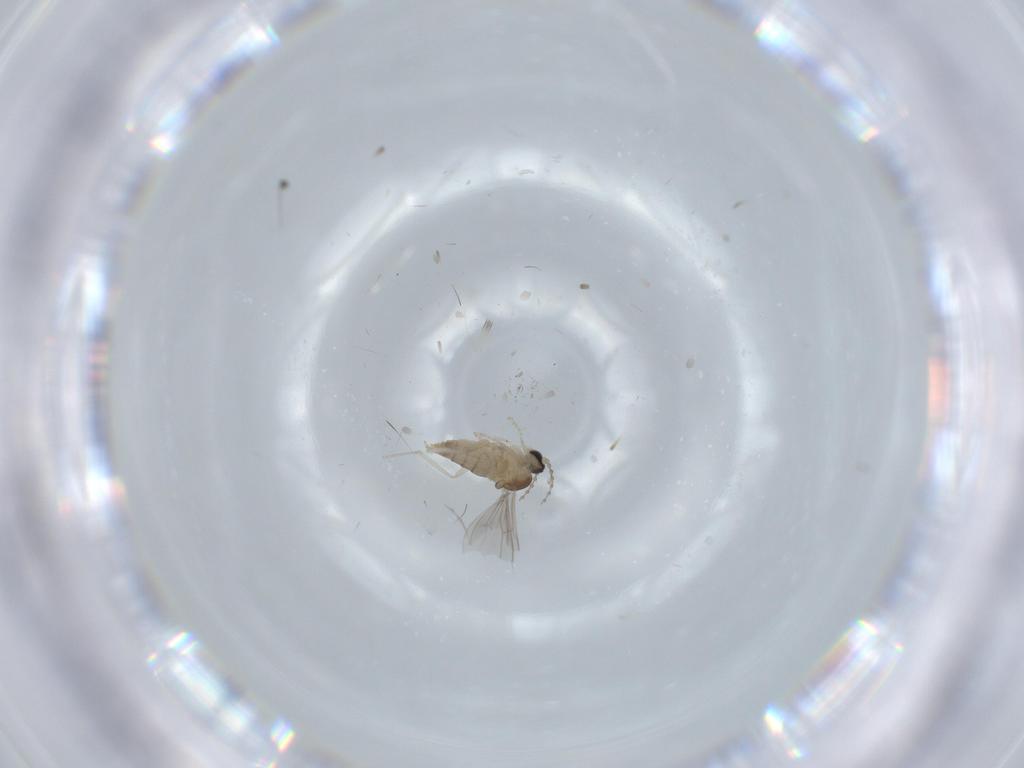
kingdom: Animalia
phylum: Arthropoda
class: Insecta
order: Diptera
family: Cecidomyiidae
